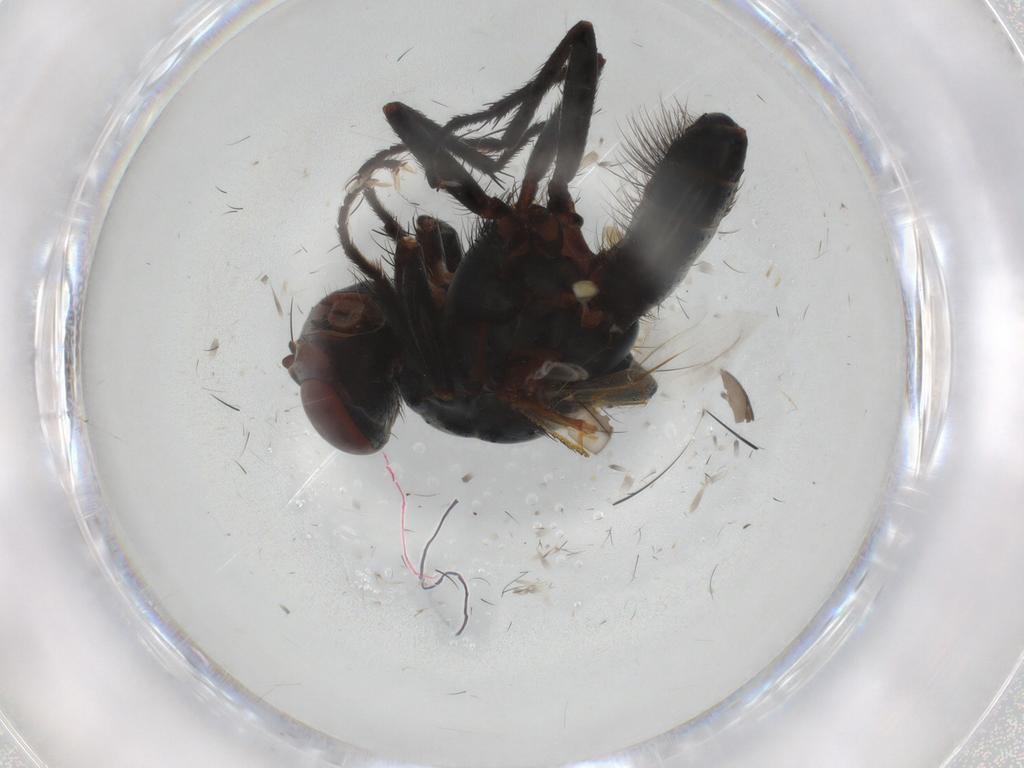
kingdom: Animalia
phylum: Arthropoda
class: Insecta
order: Diptera
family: Anthomyiidae
